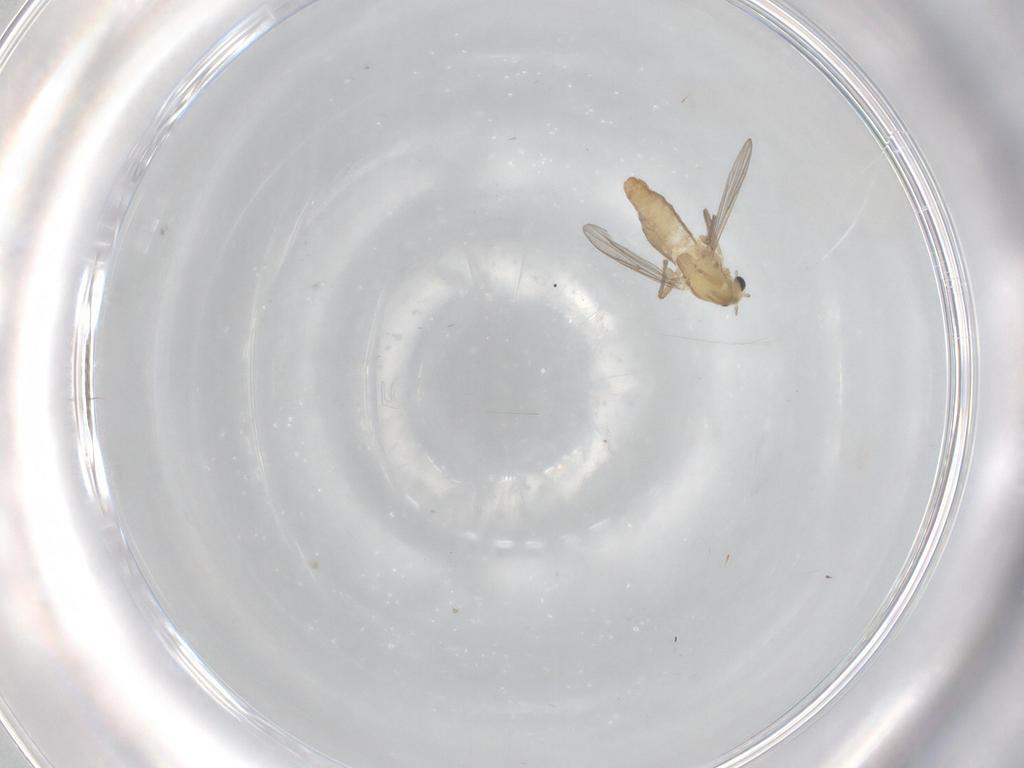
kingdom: Animalia
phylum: Arthropoda
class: Insecta
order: Diptera
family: Chironomidae
